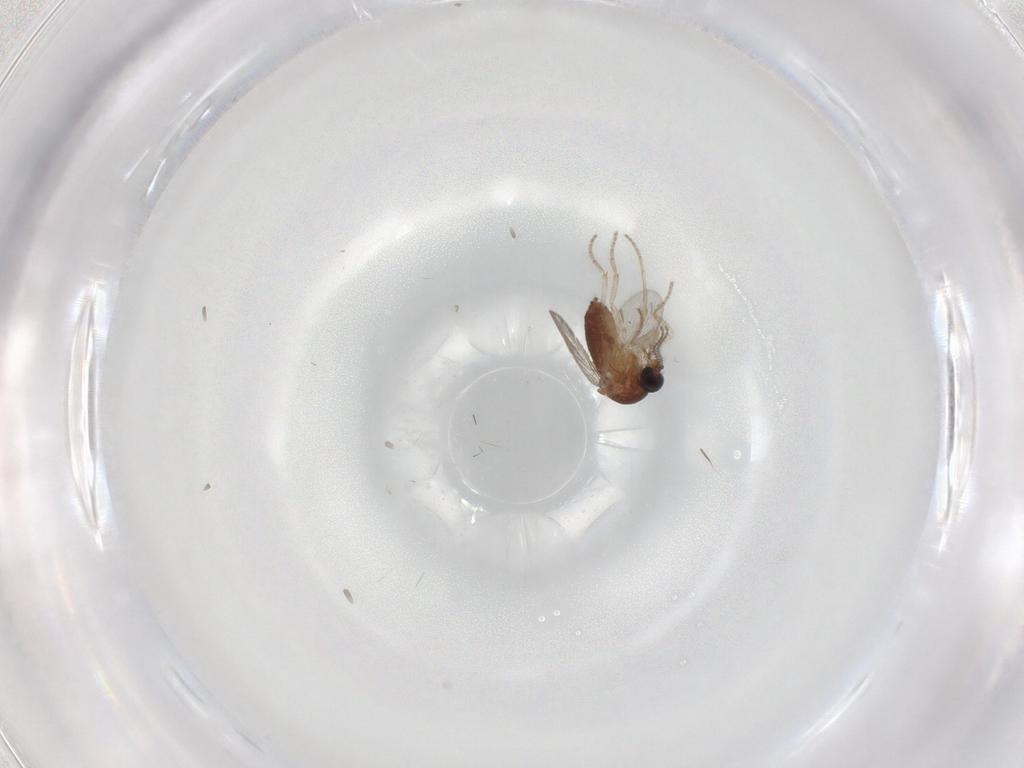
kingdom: Animalia
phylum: Arthropoda
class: Insecta
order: Diptera
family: Ceratopogonidae
